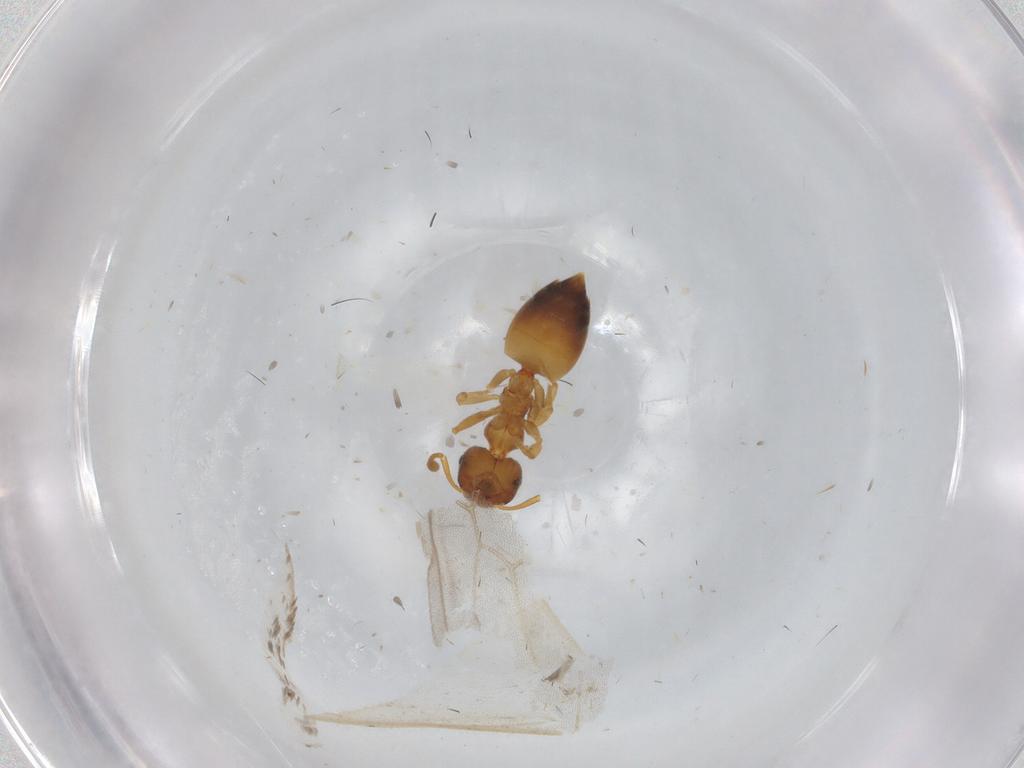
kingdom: Animalia
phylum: Arthropoda
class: Insecta
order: Hymenoptera
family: Formicidae
